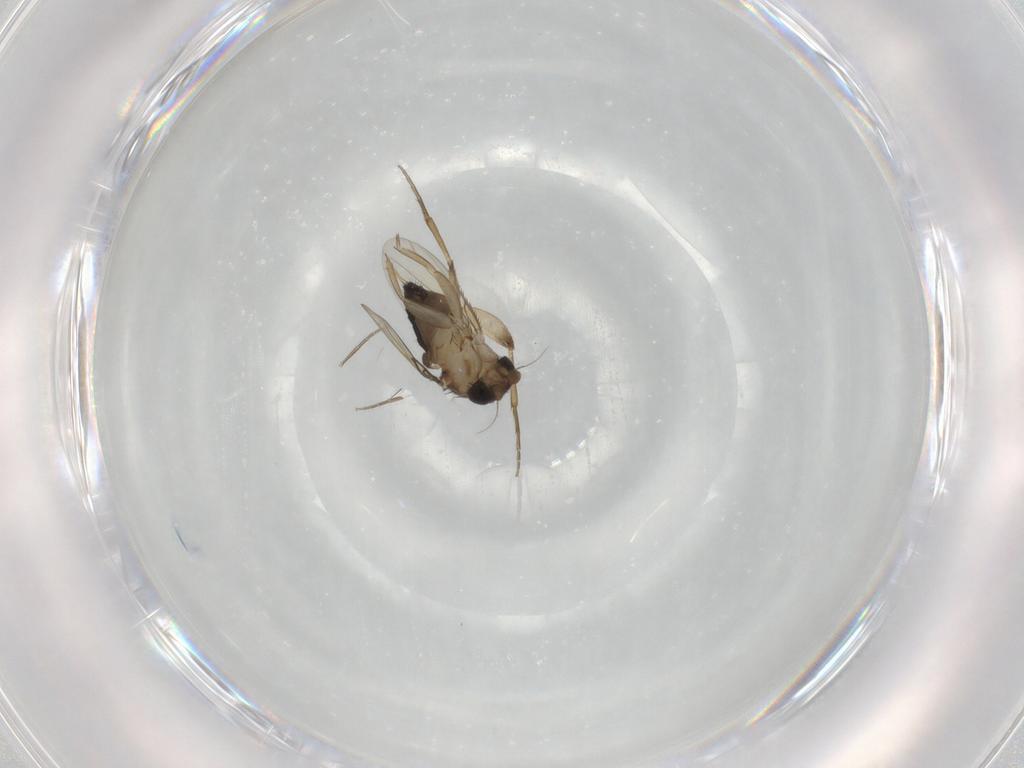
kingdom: Animalia
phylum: Arthropoda
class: Insecta
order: Diptera
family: Phoridae
